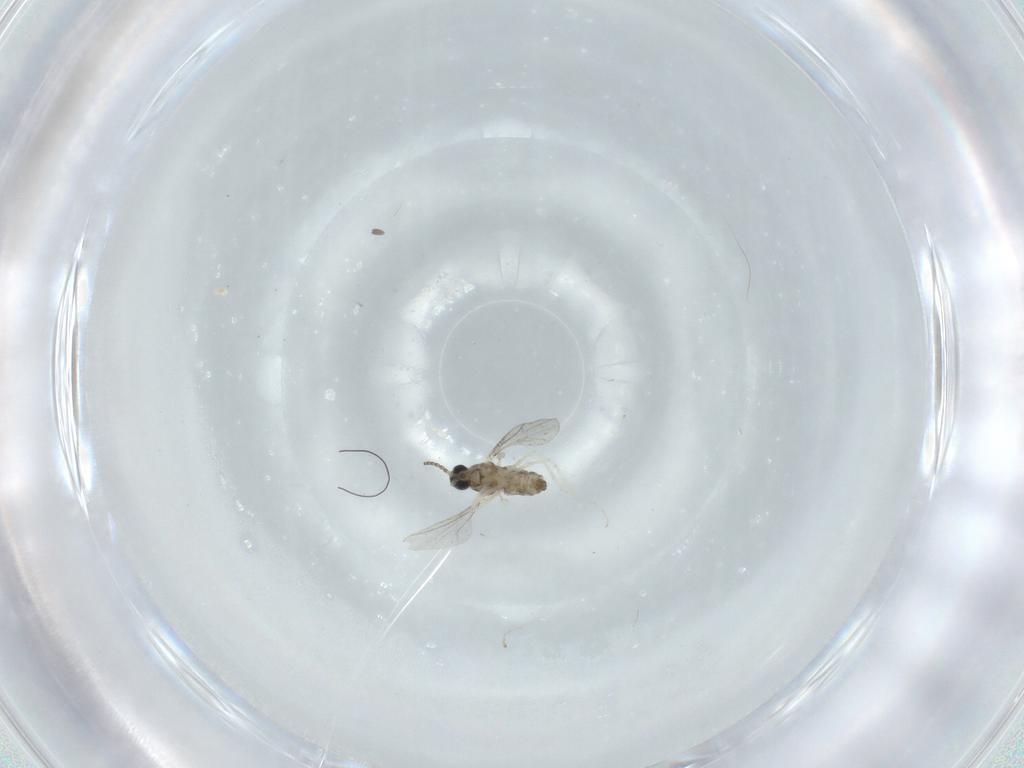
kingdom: Animalia
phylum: Arthropoda
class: Insecta
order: Diptera
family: Cecidomyiidae
